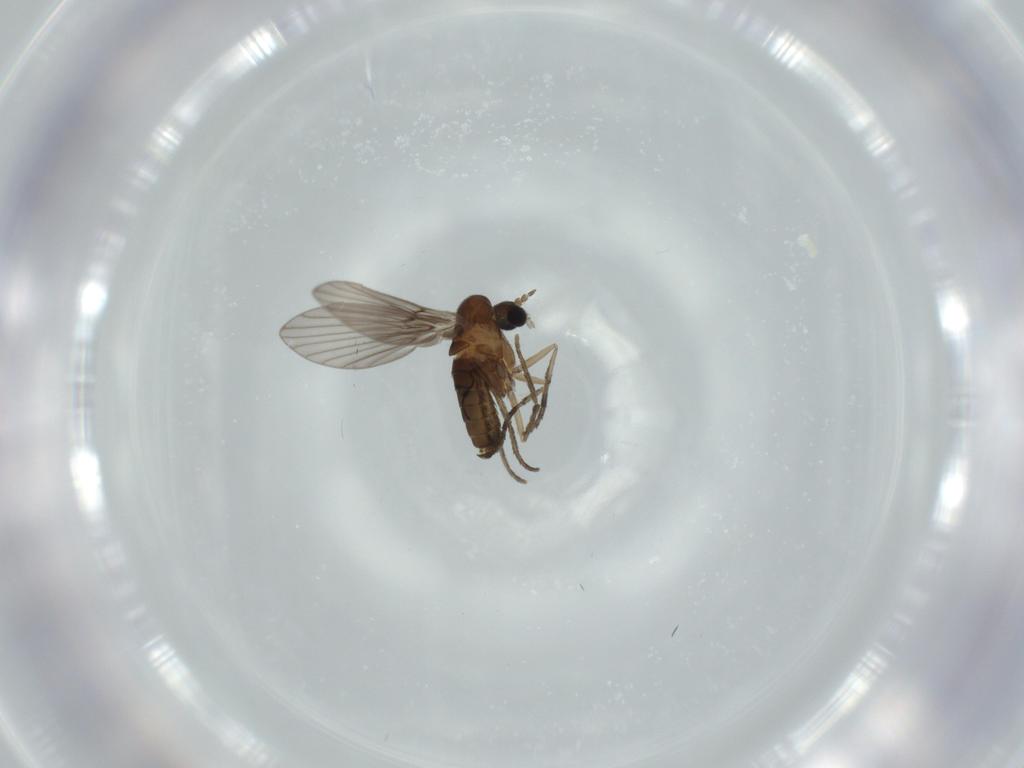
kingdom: Animalia
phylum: Arthropoda
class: Insecta
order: Diptera
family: Psychodidae
